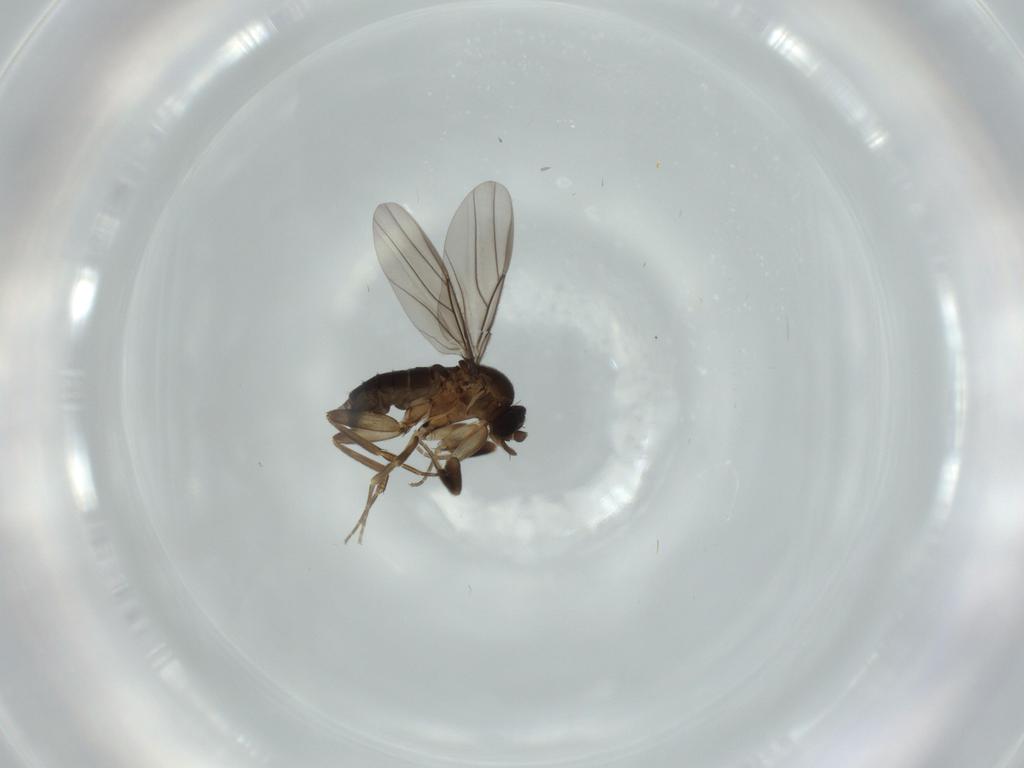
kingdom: Animalia
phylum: Arthropoda
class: Insecta
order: Diptera
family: Phoridae
